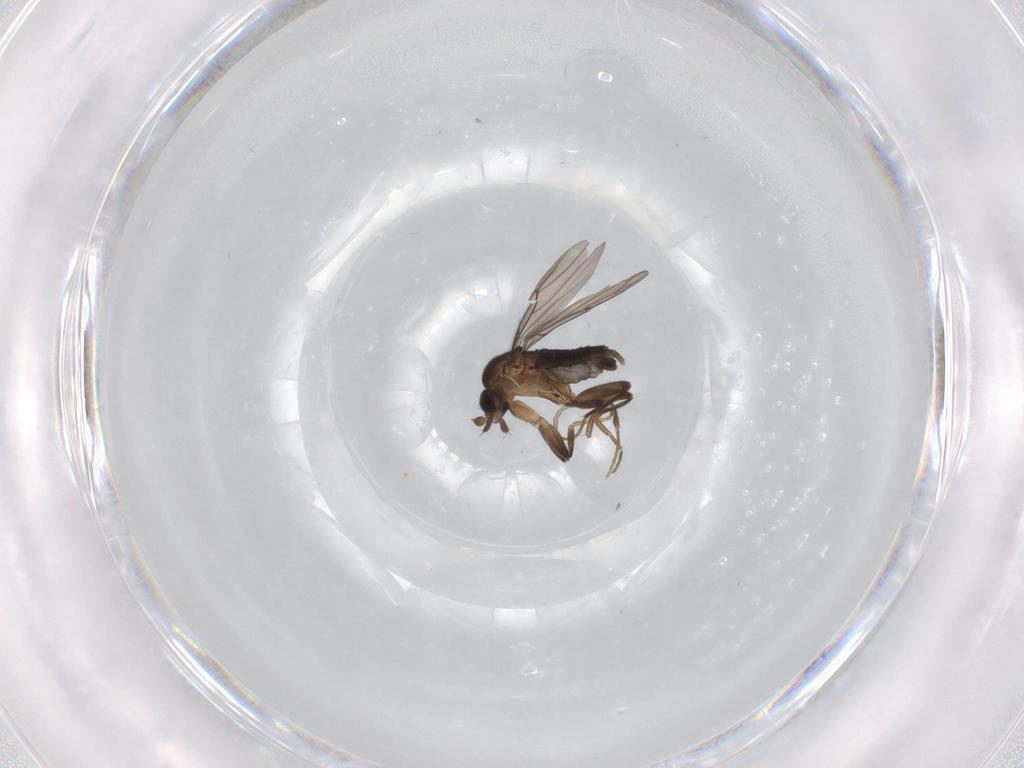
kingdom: Animalia
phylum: Arthropoda
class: Insecta
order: Diptera
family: Phoridae
